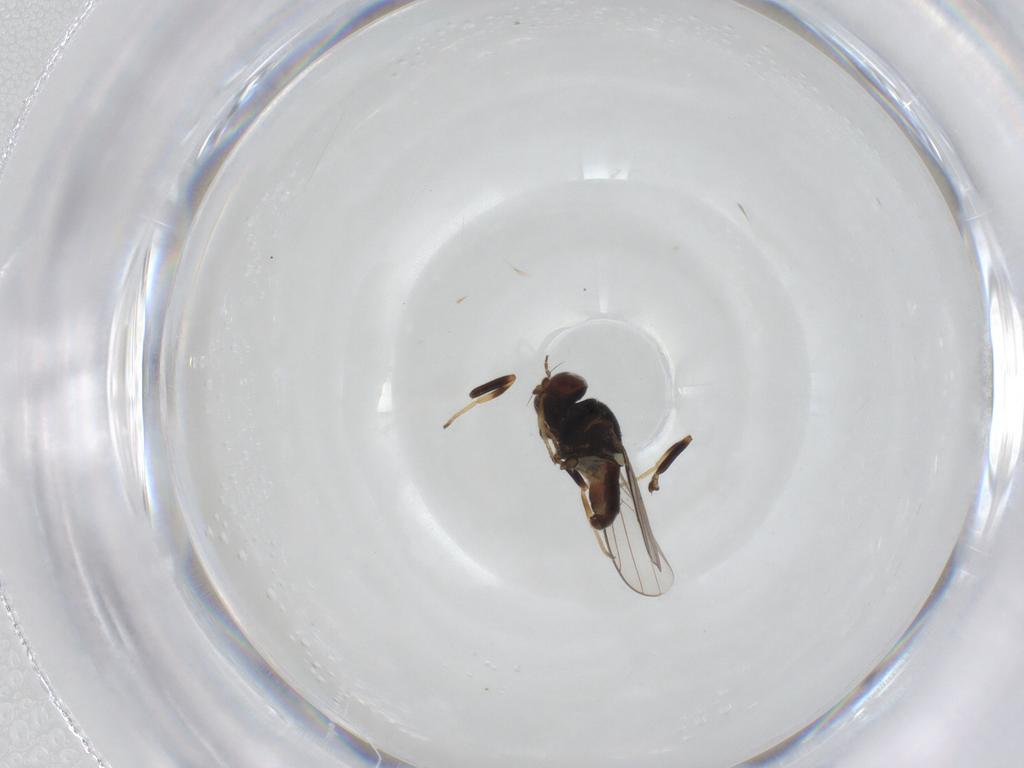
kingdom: Animalia
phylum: Arthropoda
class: Insecta
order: Diptera
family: Chloropidae
